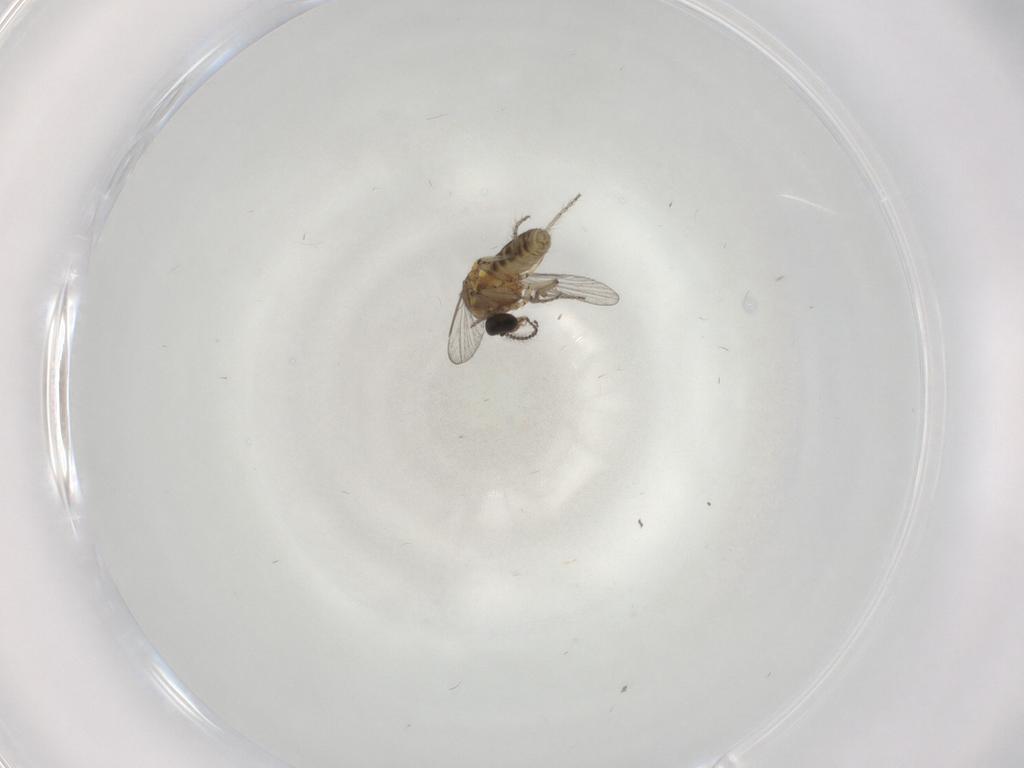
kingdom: Animalia
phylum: Arthropoda
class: Insecta
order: Diptera
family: Ceratopogonidae
